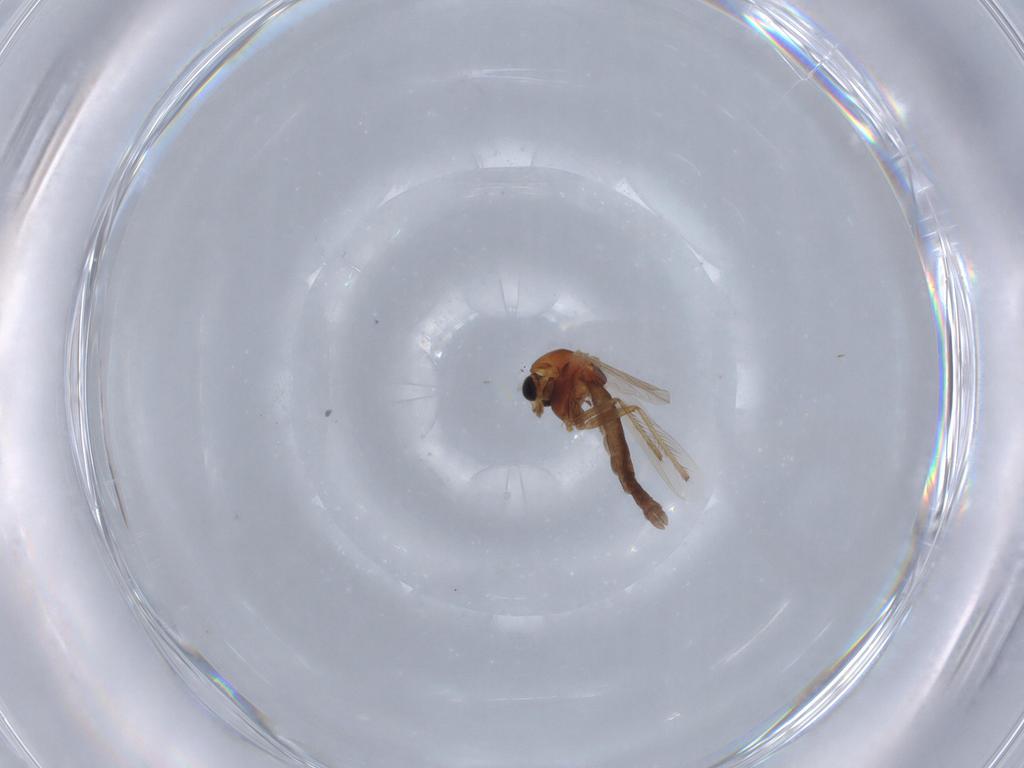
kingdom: Animalia
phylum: Arthropoda
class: Insecta
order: Diptera
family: Chironomidae
